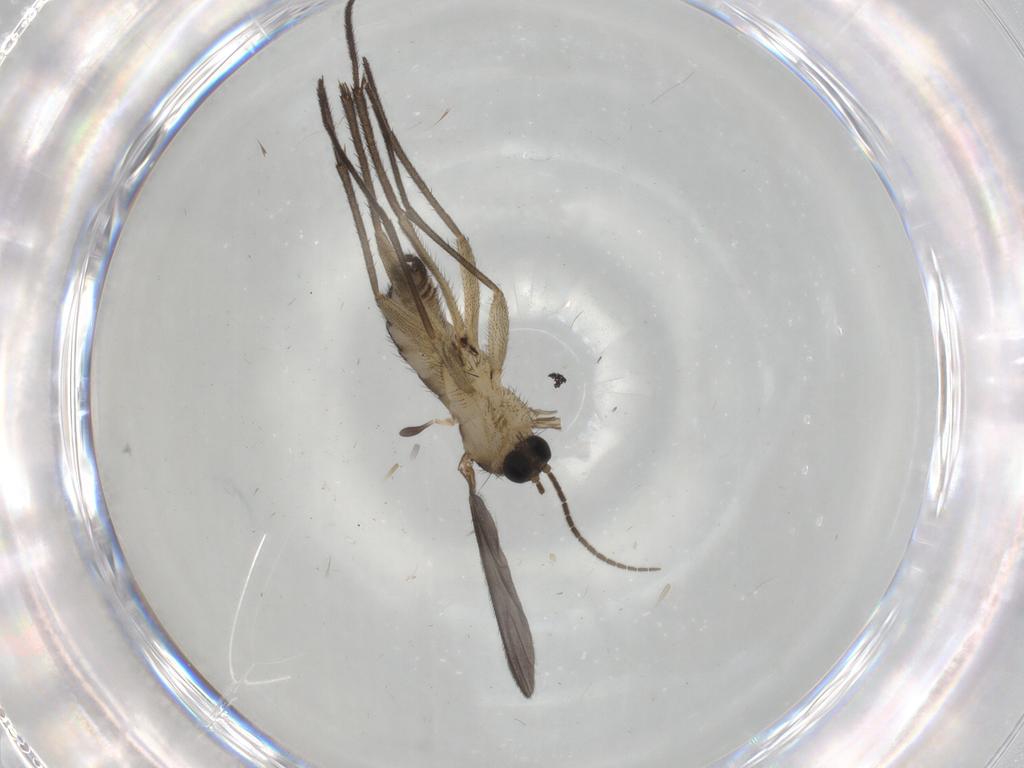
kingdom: Animalia
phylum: Arthropoda
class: Insecta
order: Diptera
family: Sciaridae
